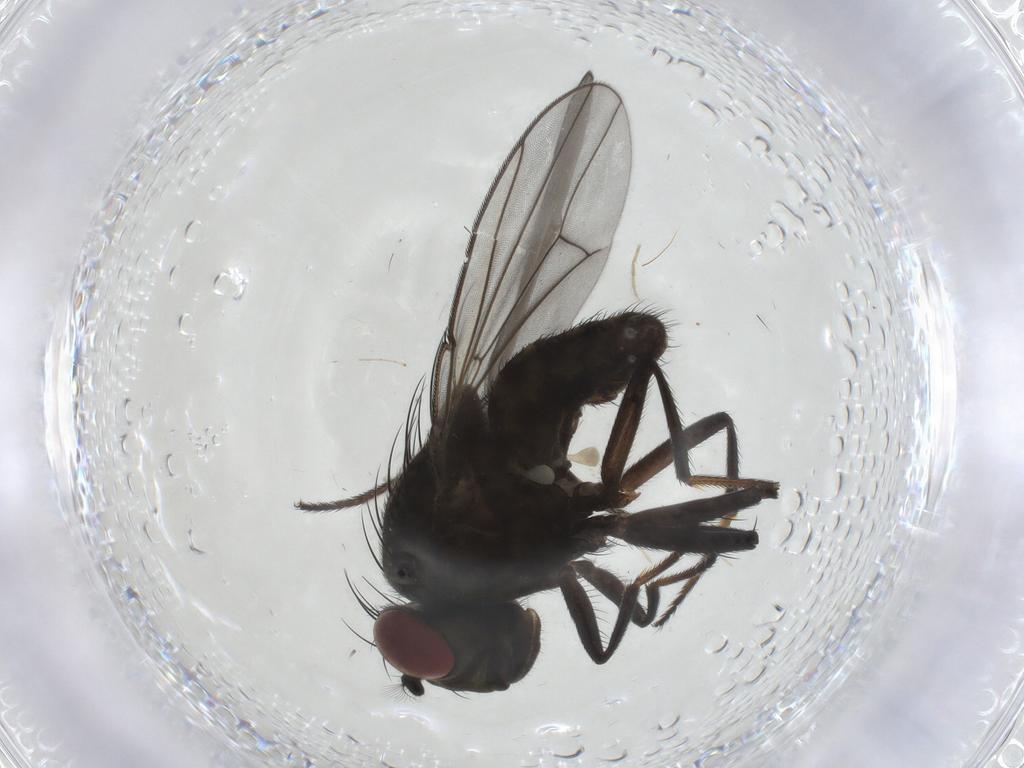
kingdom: Animalia
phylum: Arthropoda
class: Insecta
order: Diptera
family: Ephydridae
